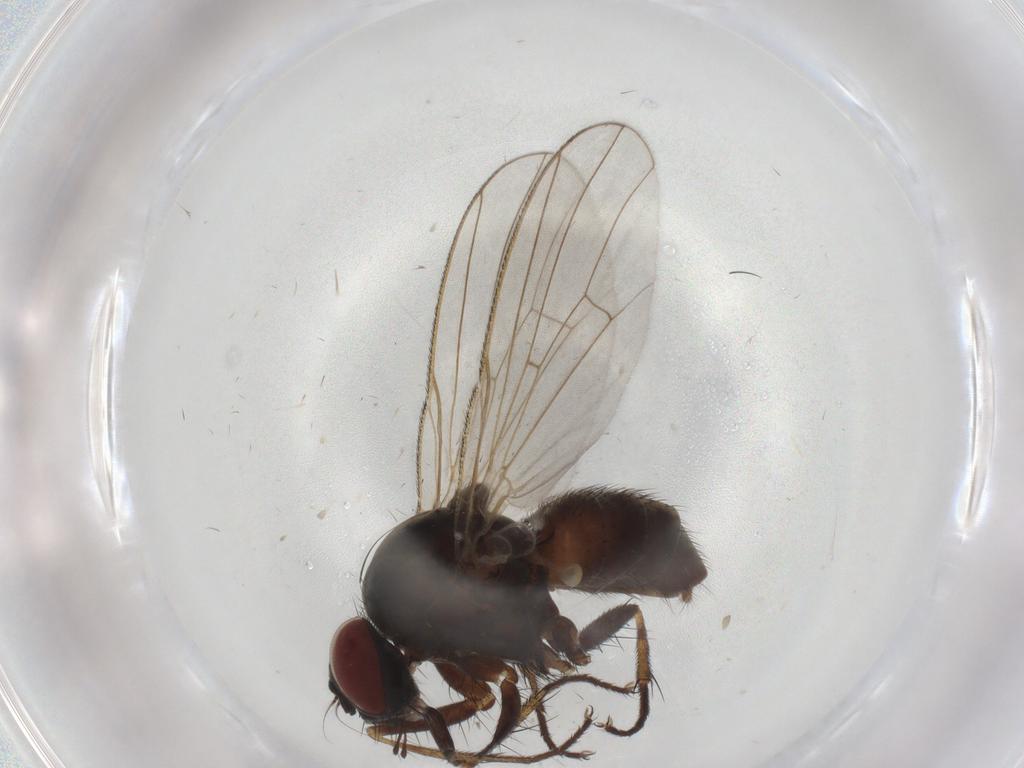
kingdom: Animalia
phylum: Arthropoda
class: Insecta
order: Diptera
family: Muscidae
